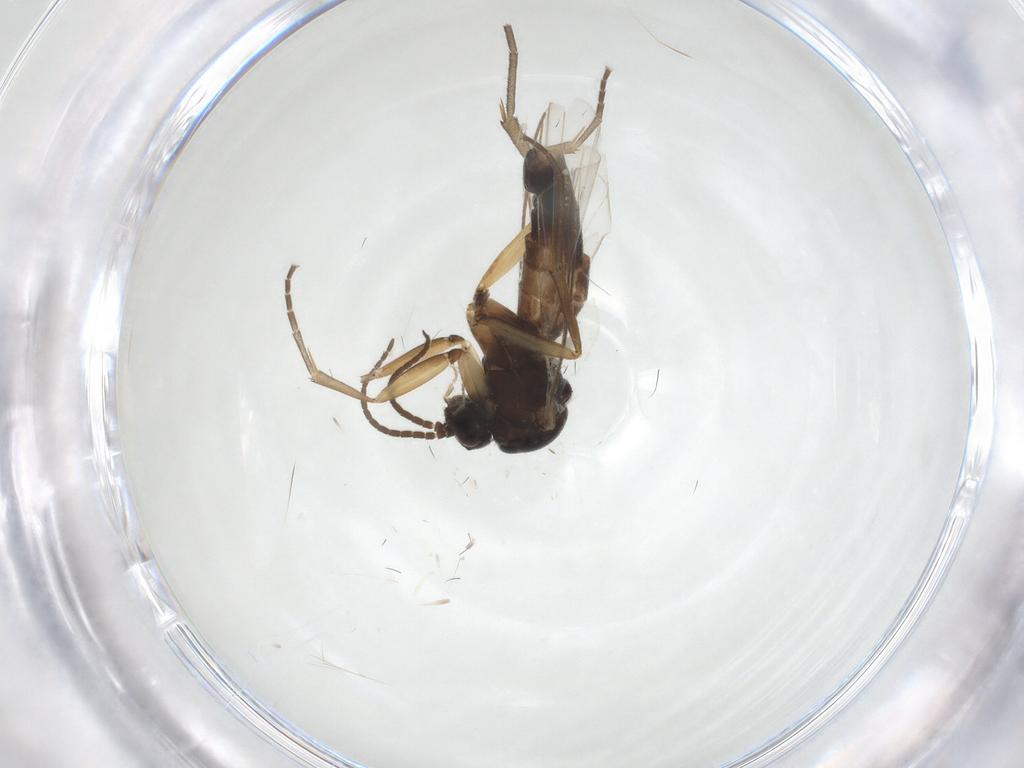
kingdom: Animalia
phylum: Arthropoda
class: Insecta
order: Diptera
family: Mycetophilidae
